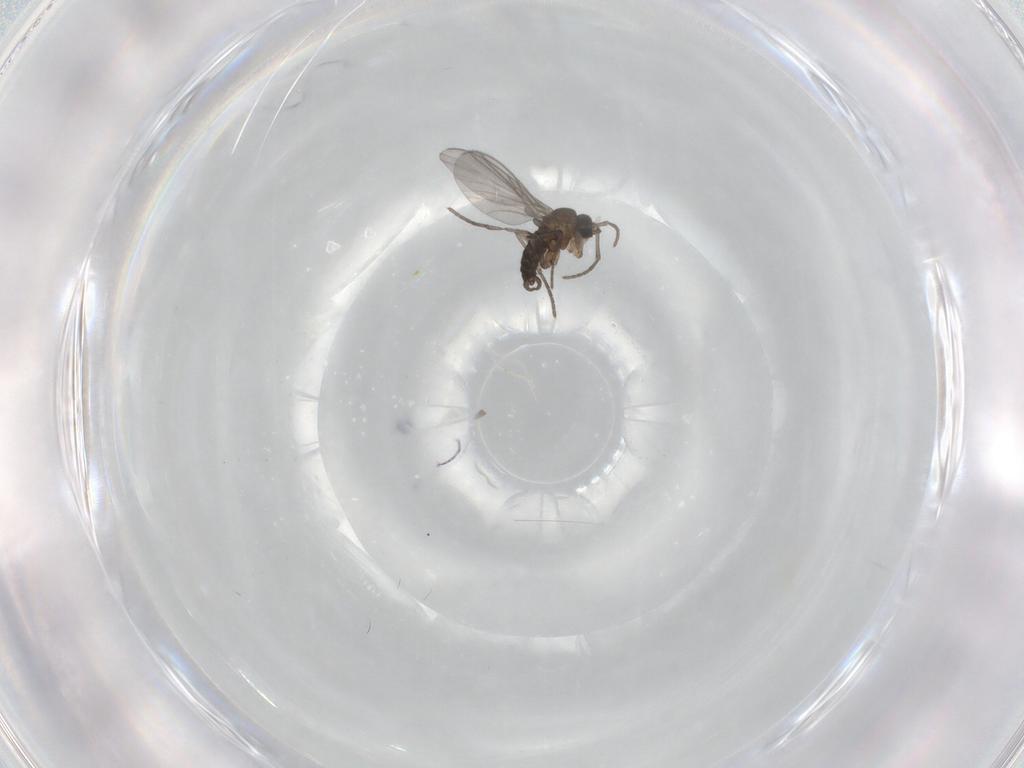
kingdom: Animalia
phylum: Arthropoda
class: Insecta
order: Diptera
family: Sciaridae
